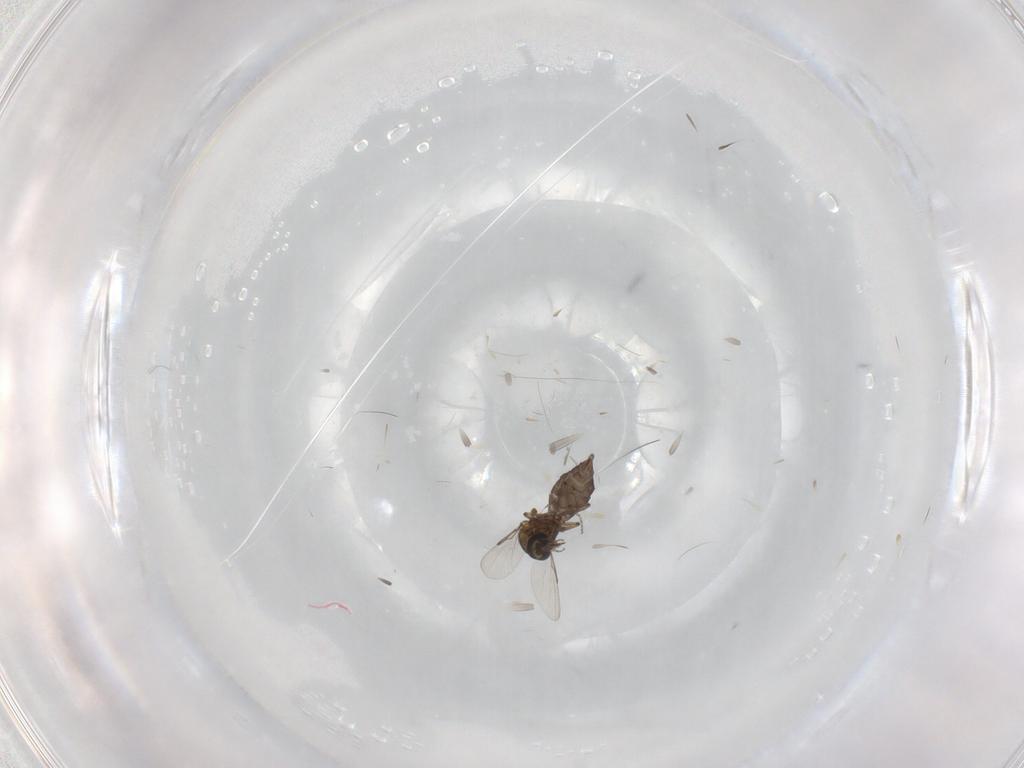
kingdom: Animalia
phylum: Arthropoda
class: Insecta
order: Diptera
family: Ceratopogonidae
